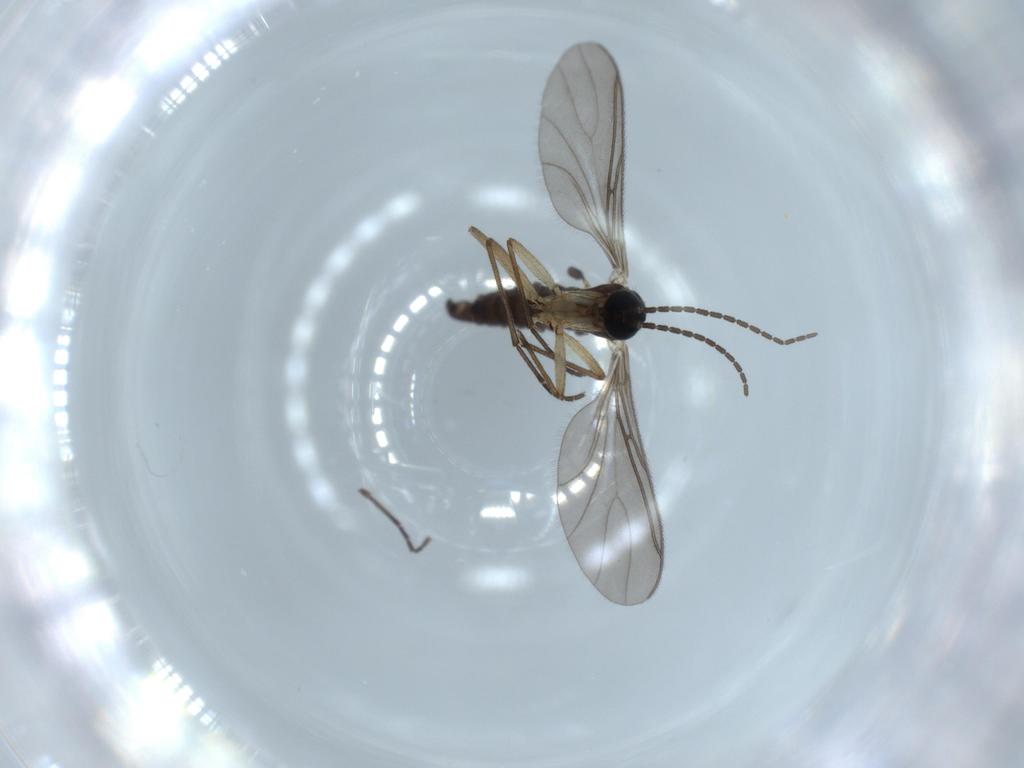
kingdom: Animalia
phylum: Arthropoda
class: Insecta
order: Diptera
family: Sciaridae
